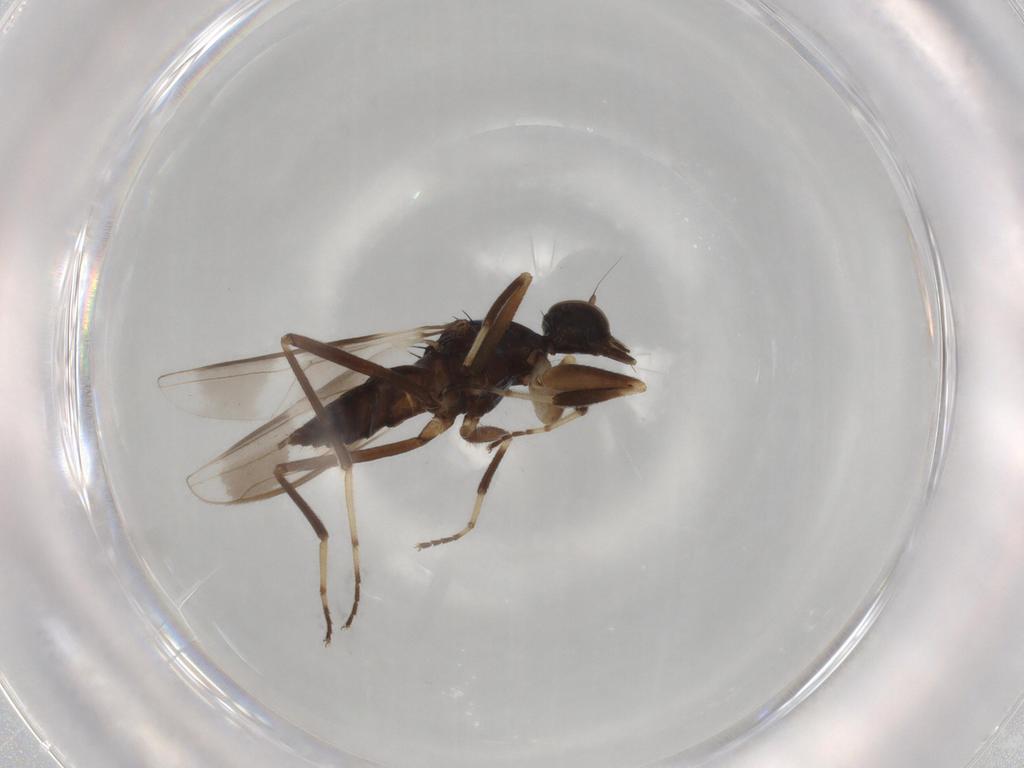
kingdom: Animalia
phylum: Arthropoda
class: Insecta
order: Diptera
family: Hybotidae
